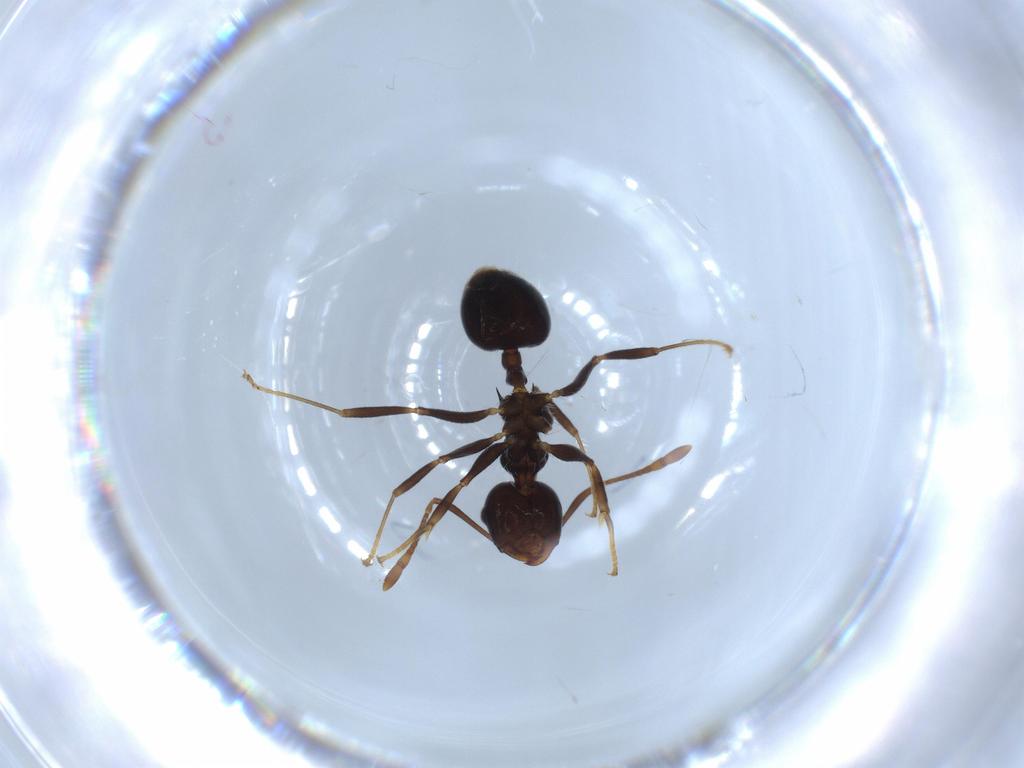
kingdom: Animalia
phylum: Arthropoda
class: Insecta
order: Hymenoptera
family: Formicidae
